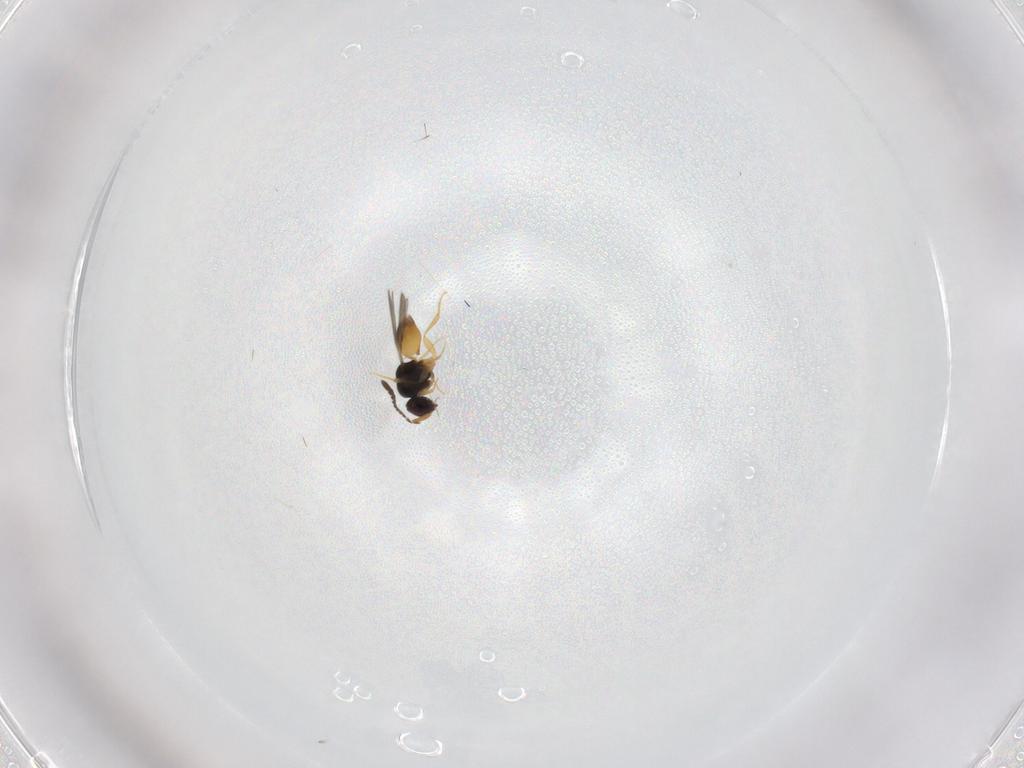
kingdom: Animalia
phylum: Arthropoda
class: Insecta
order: Hymenoptera
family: Ceraphronidae
